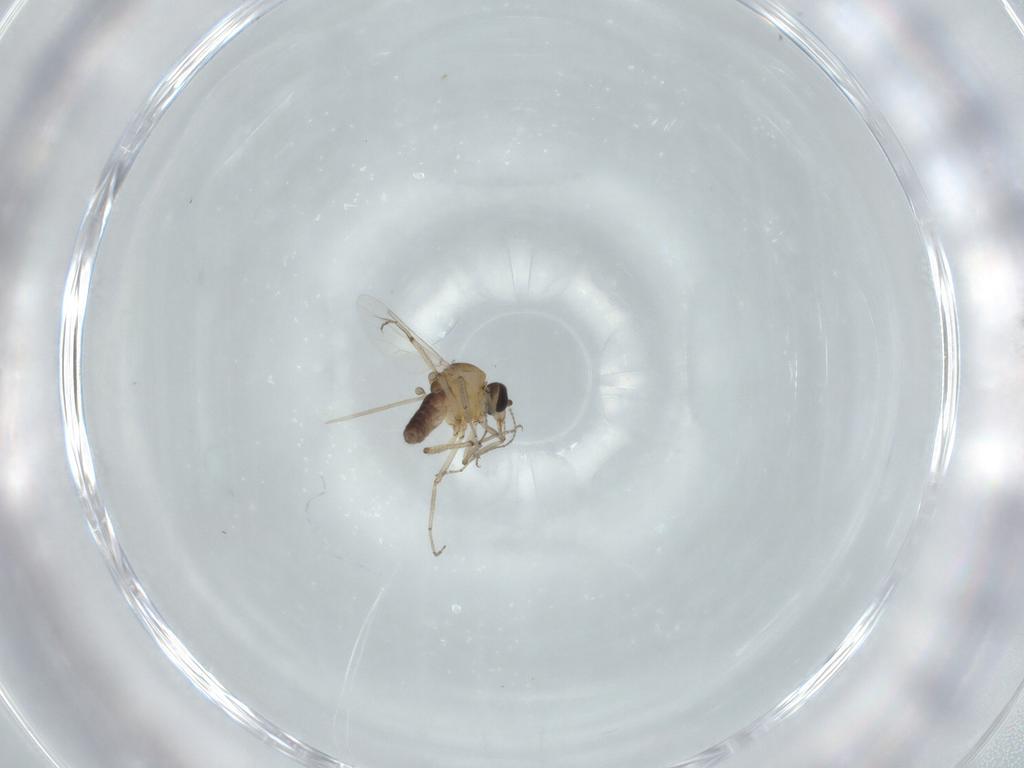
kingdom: Animalia
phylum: Arthropoda
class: Insecta
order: Diptera
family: Ceratopogonidae
